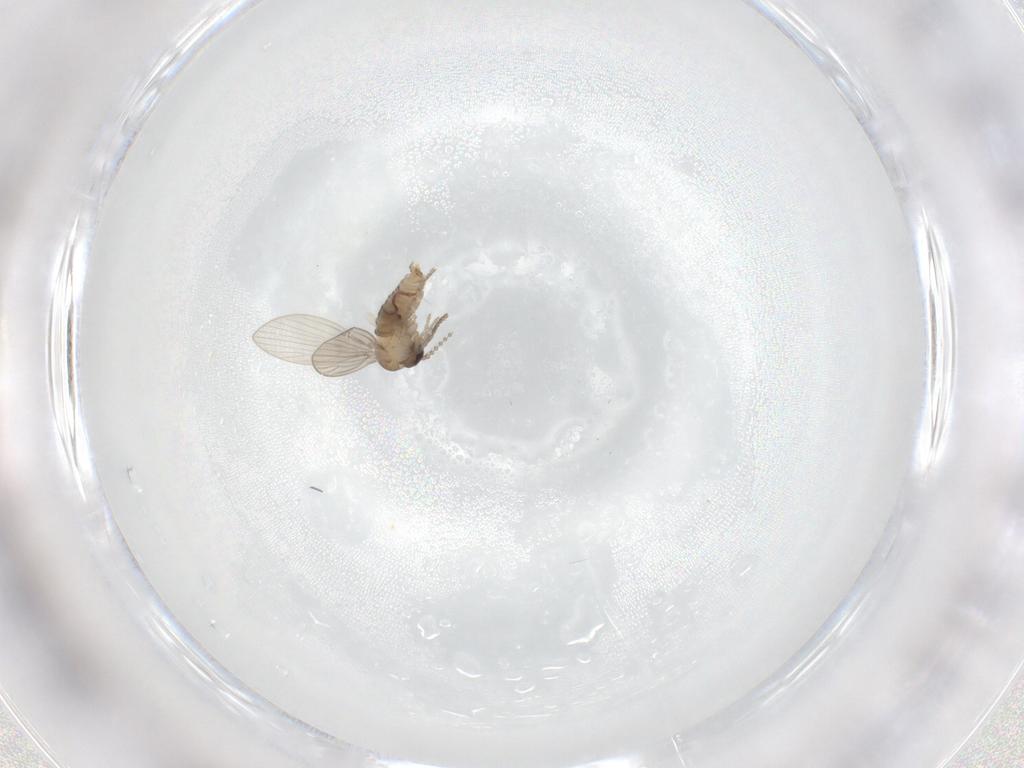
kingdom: Animalia
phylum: Arthropoda
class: Insecta
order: Diptera
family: Psychodidae
